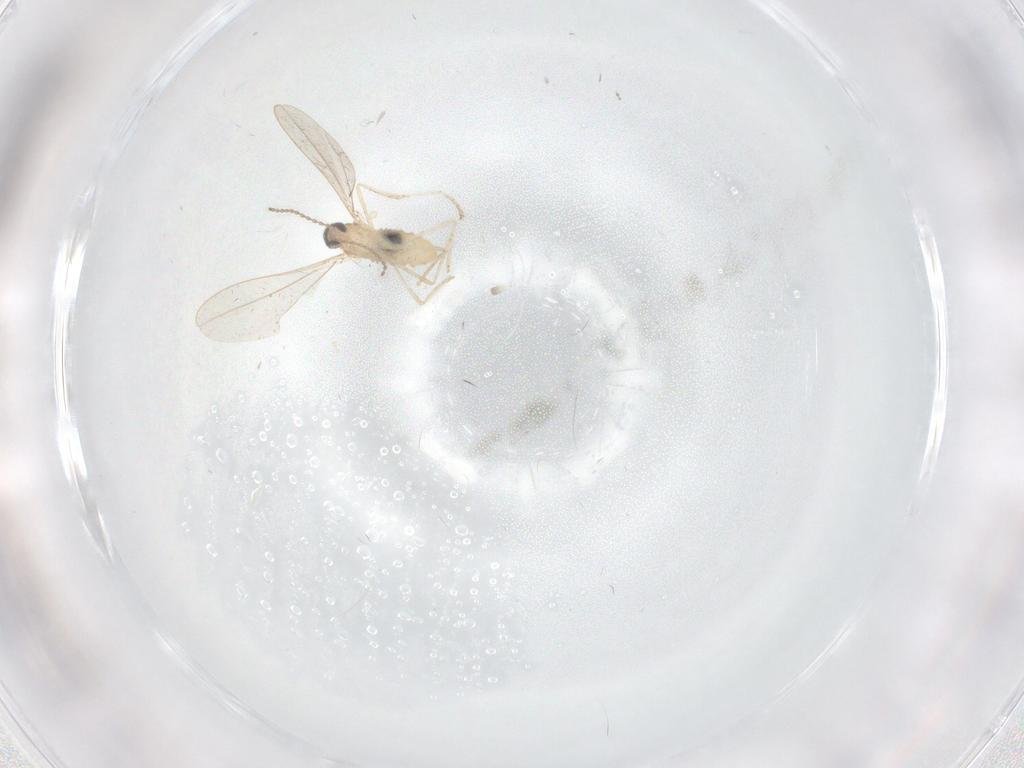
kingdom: Animalia
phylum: Arthropoda
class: Insecta
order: Diptera
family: Cecidomyiidae
